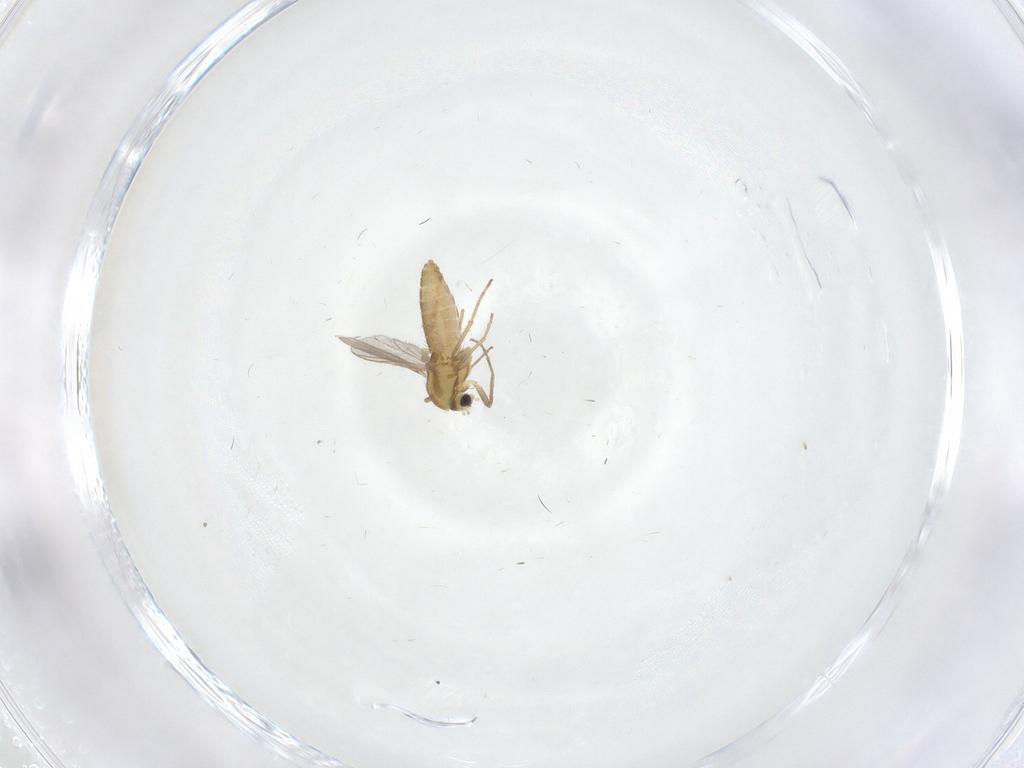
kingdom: Animalia
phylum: Arthropoda
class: Insecta
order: Diptera
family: Chironomidae
